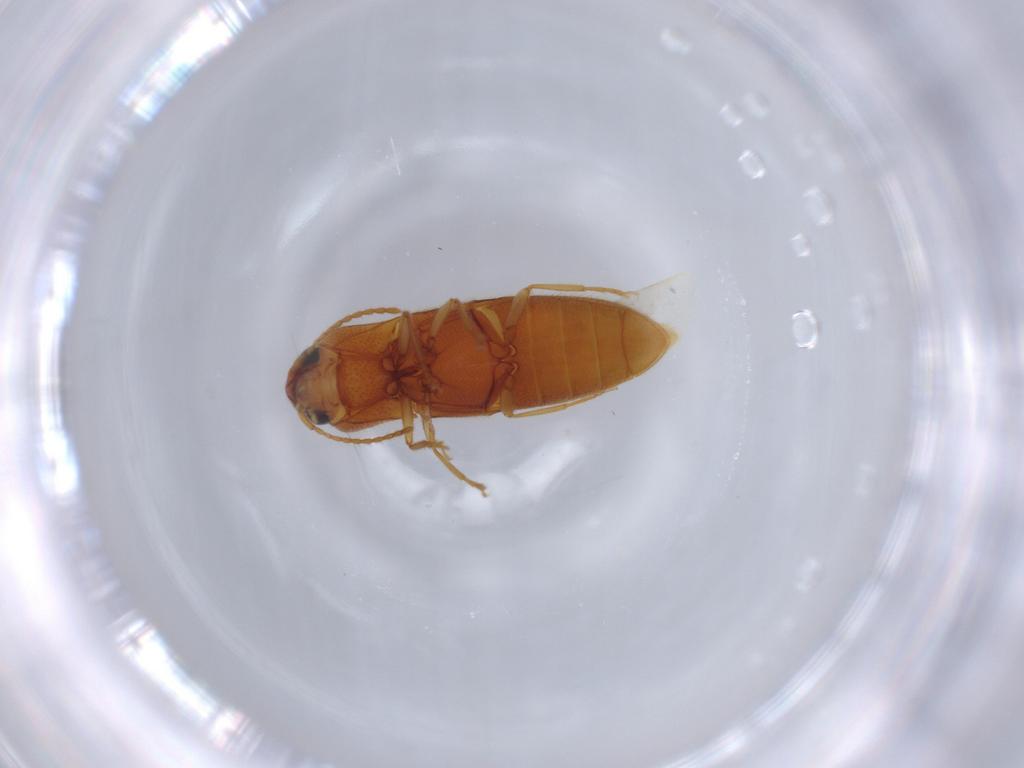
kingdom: Animalia
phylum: Arthropoda
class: Insecta
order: Coleoptera
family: Elateridae
